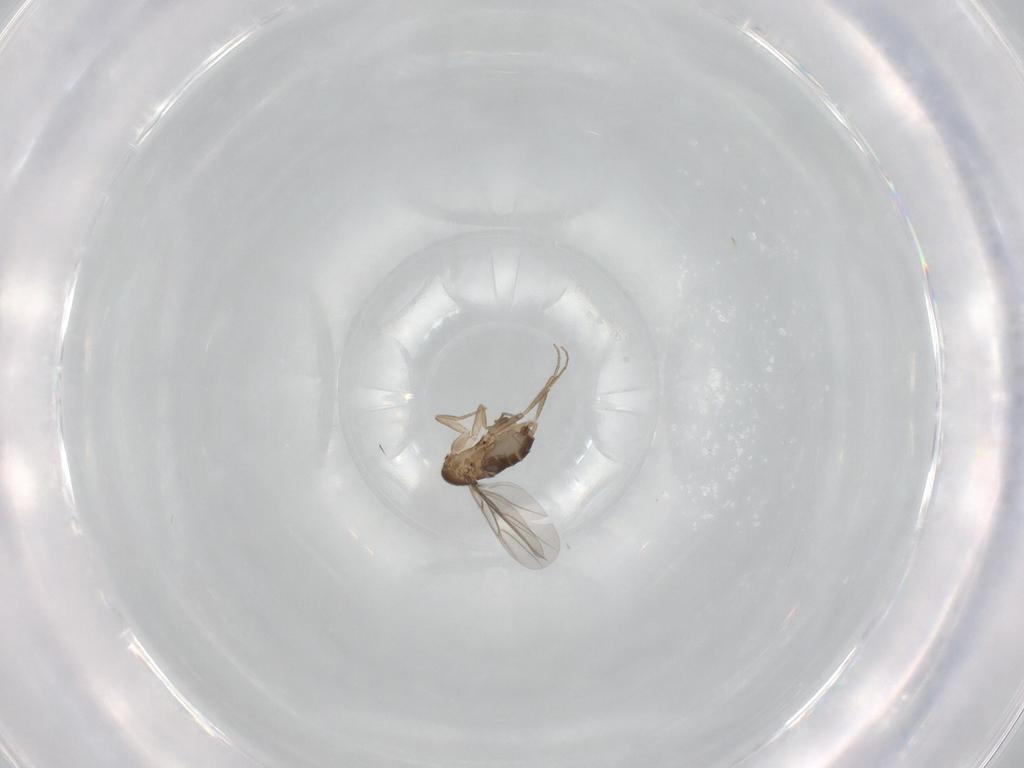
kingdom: Animalia
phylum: Arthropoda
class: Insecta
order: Diptera
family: Phoridae
